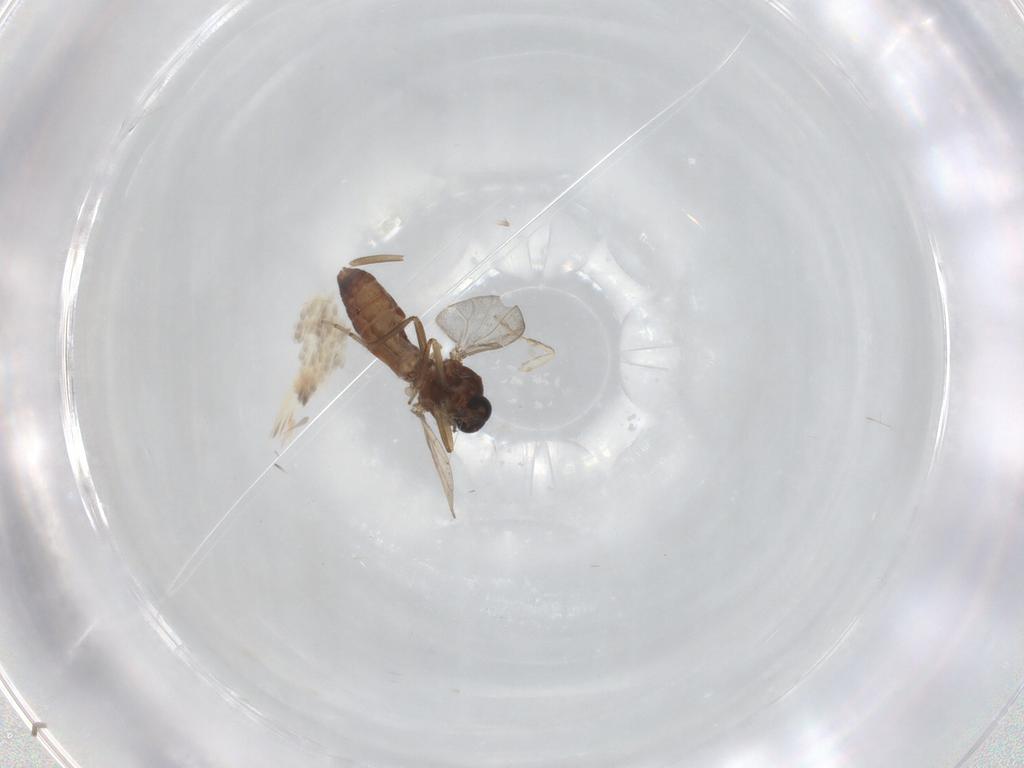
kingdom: Animalia
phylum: Arthropoda
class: Insecta
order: Diptera
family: Ceratopogonidae
